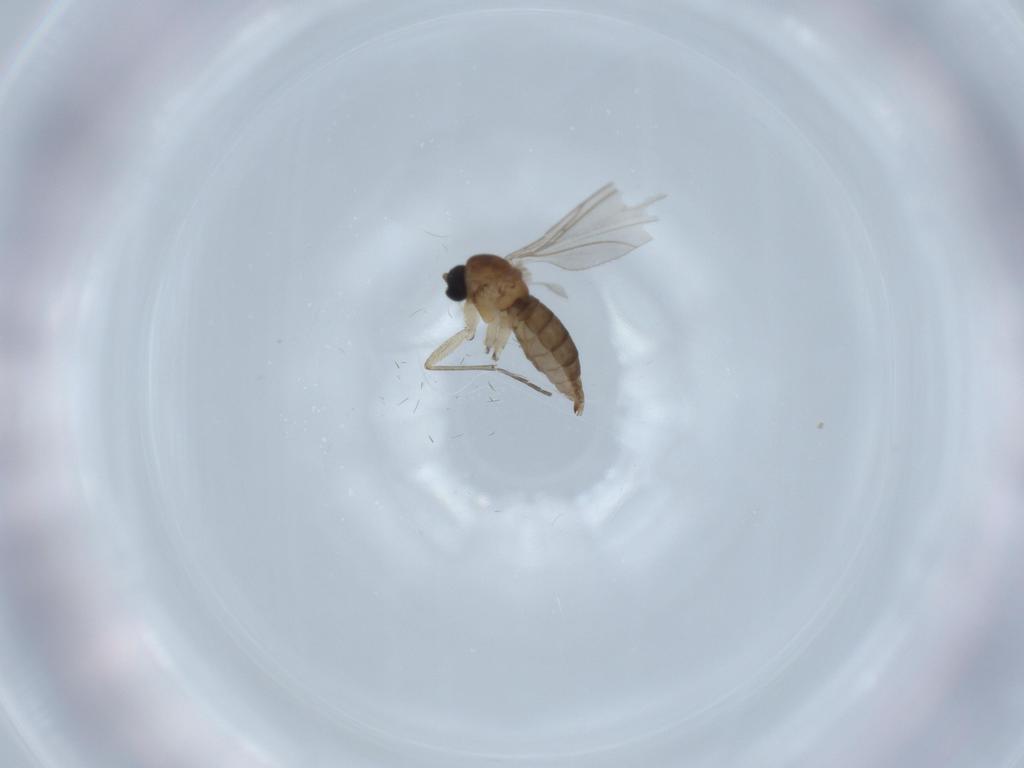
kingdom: Animalia
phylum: Arthropoda
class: Insecta
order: Diptera
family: Sciaridae
